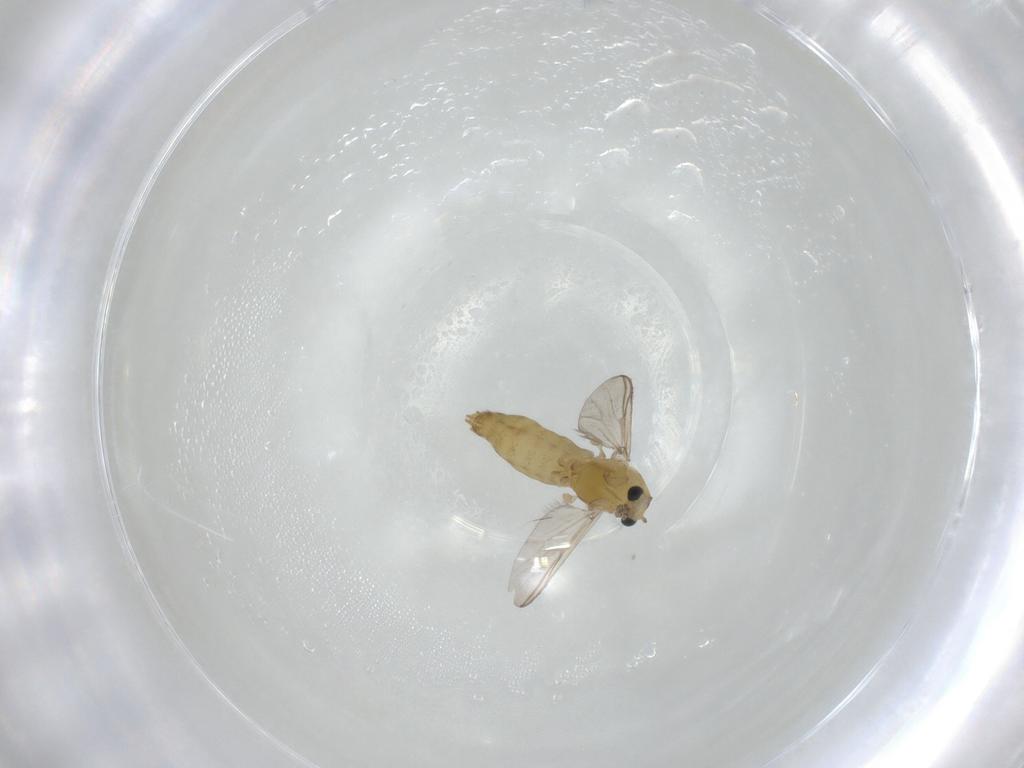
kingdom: Animalia
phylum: Arthropoda
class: Insecta
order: Diptera
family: Chironomidae
